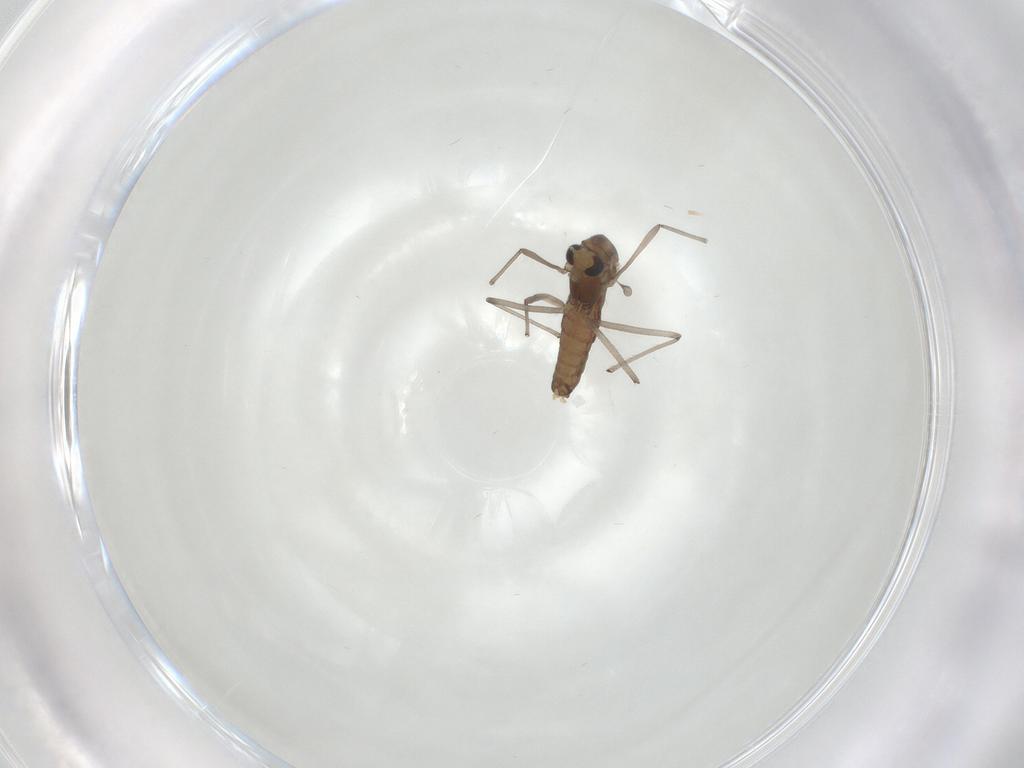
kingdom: Animalia
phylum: Arthropoda
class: Insecta
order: Diptera
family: Chironomidae
